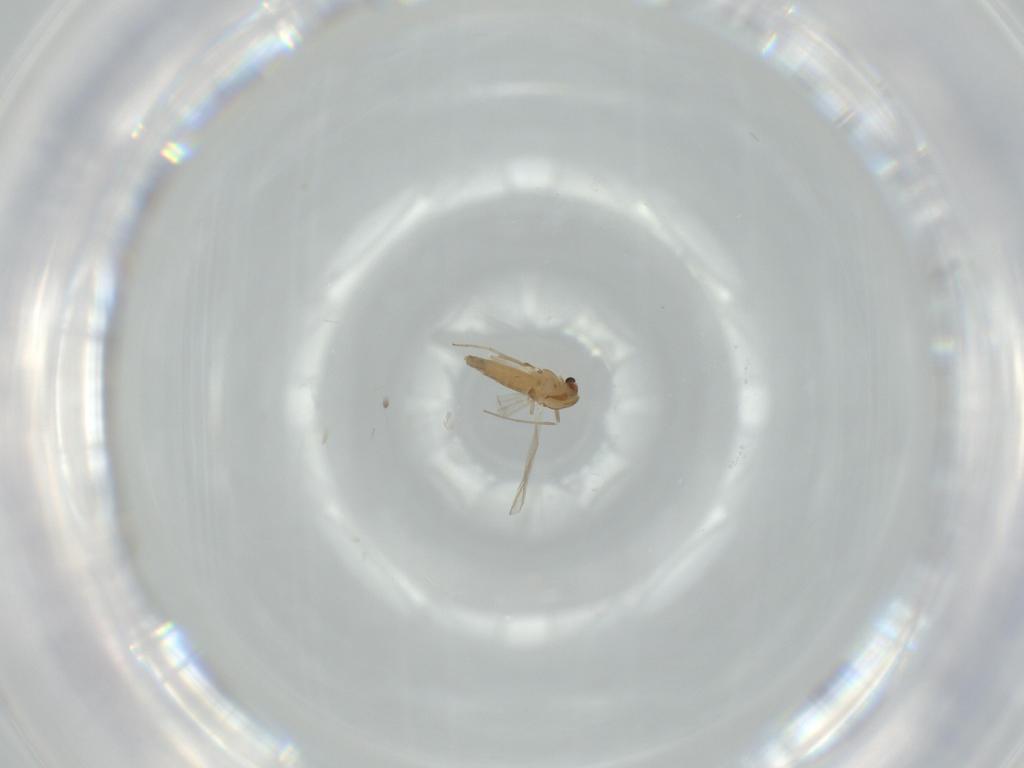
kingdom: Animalia
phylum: Arthropoda
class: Insecta
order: Diptera
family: Chironomidae
